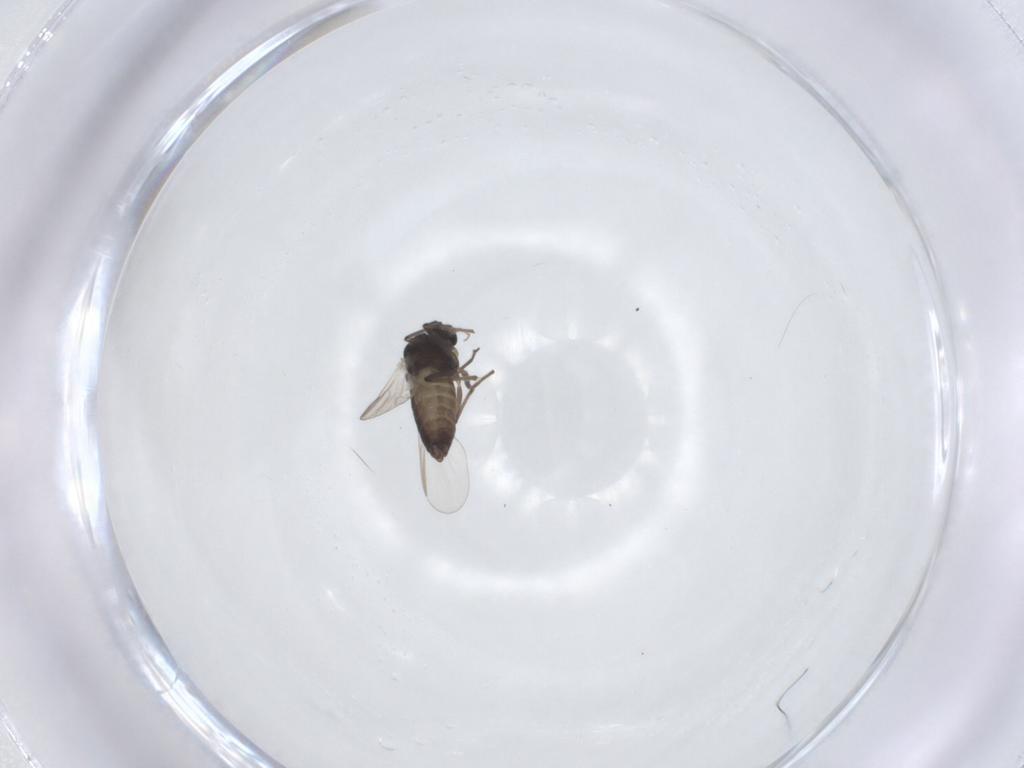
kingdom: Animalia
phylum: Arthropoda
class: Insecta
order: Diptera
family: Chironomidae
